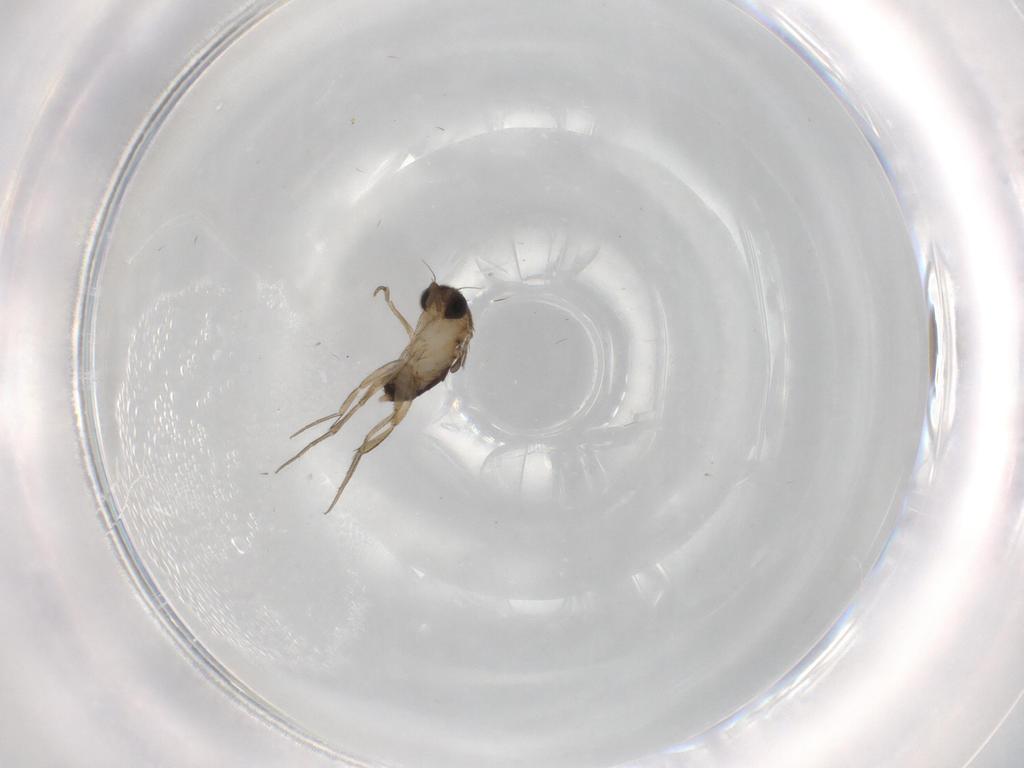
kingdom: Animalia
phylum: Arthropoda
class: Insecta
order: Diptera
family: Phoridae
